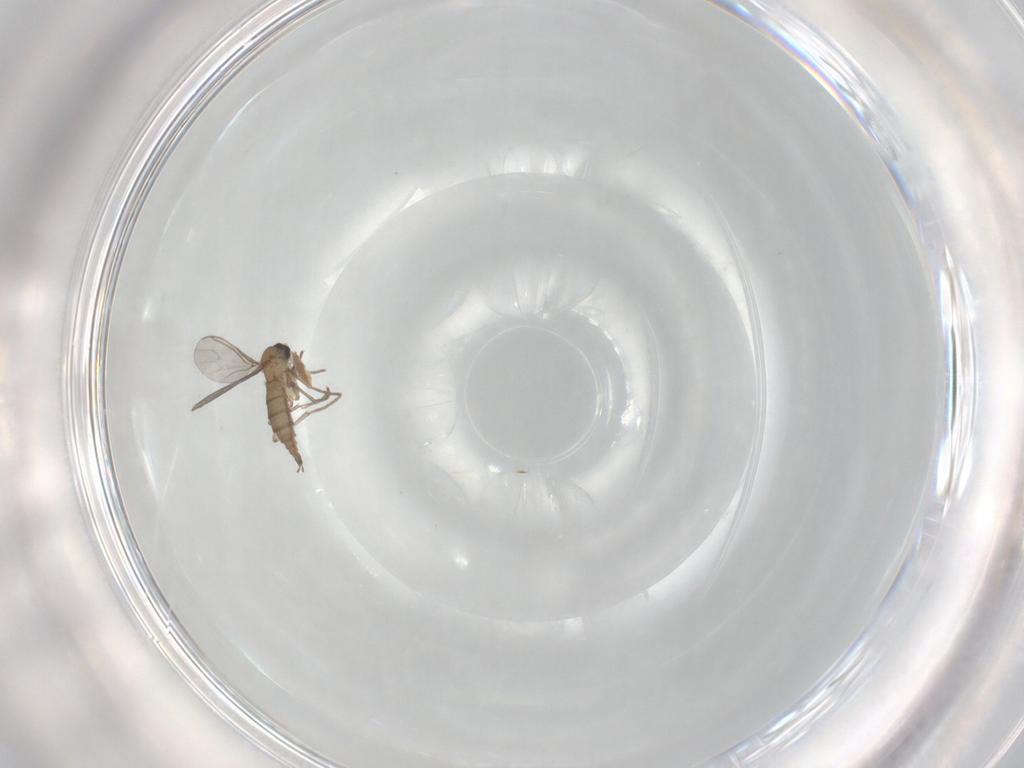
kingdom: Animalia
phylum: Arthropoda
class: Insecta
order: Diptera
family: Sciaridae
